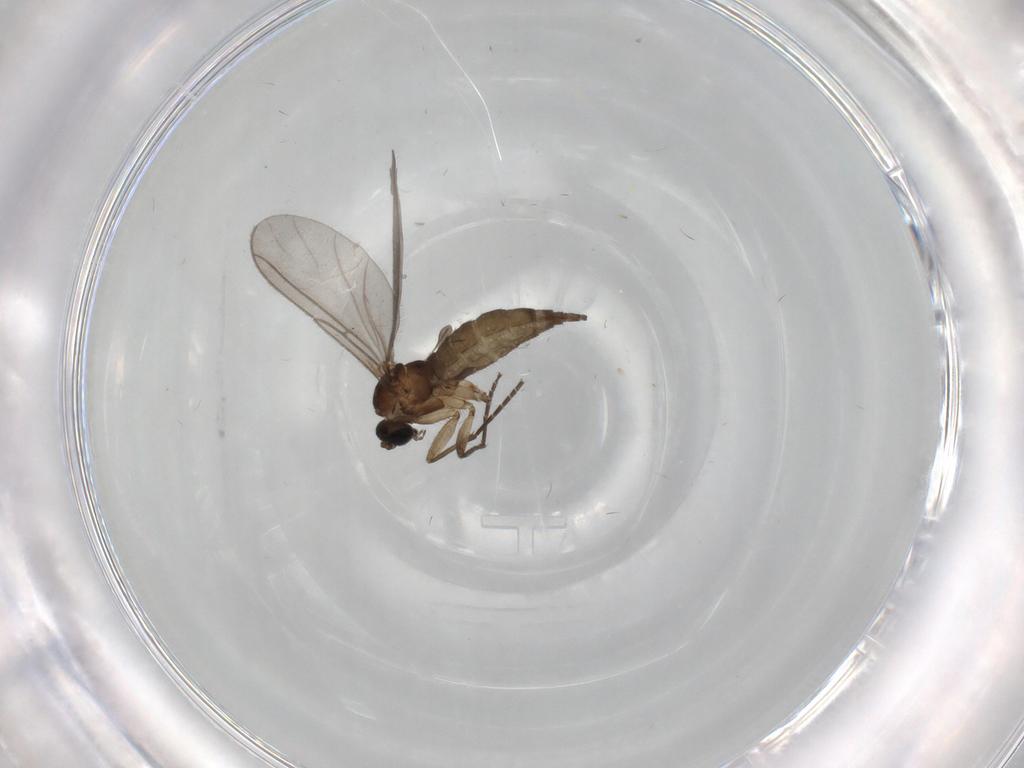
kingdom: Animalia
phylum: Arthropoda
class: Insecta
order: Diptera
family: Sciaridae
